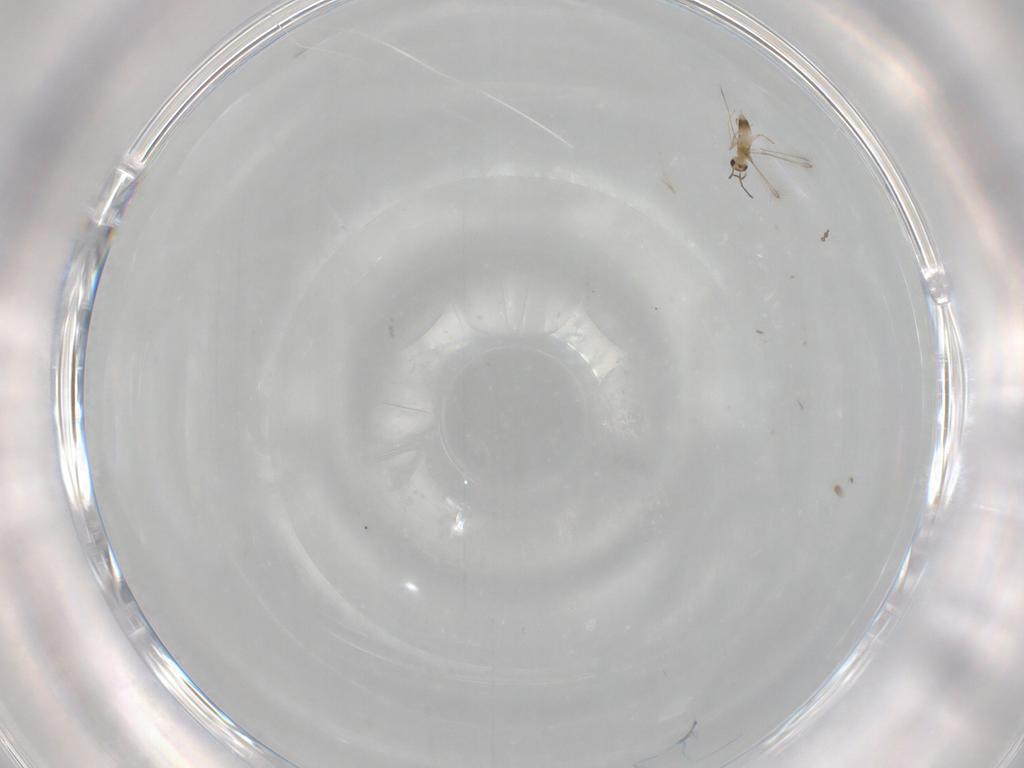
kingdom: Animalia
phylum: Arthropoda
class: Insecta
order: Hymenoptera
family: Mymaridae
